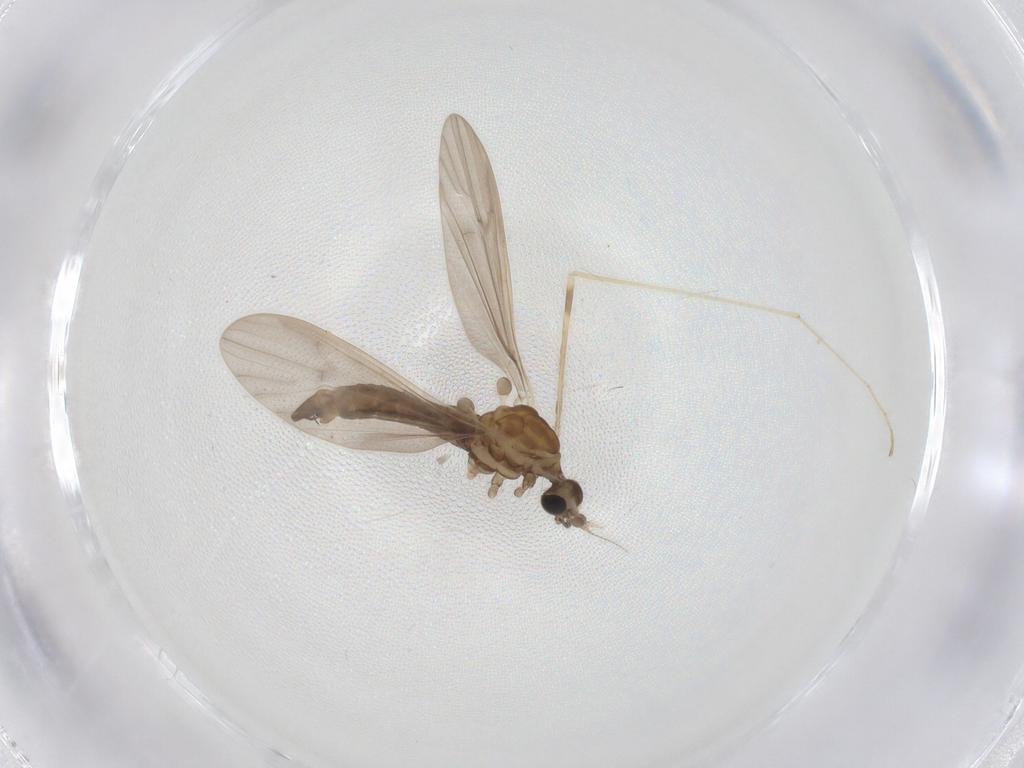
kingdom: Animalia
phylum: Arthropoda
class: Insecta
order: Diptera
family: Limoniidae
